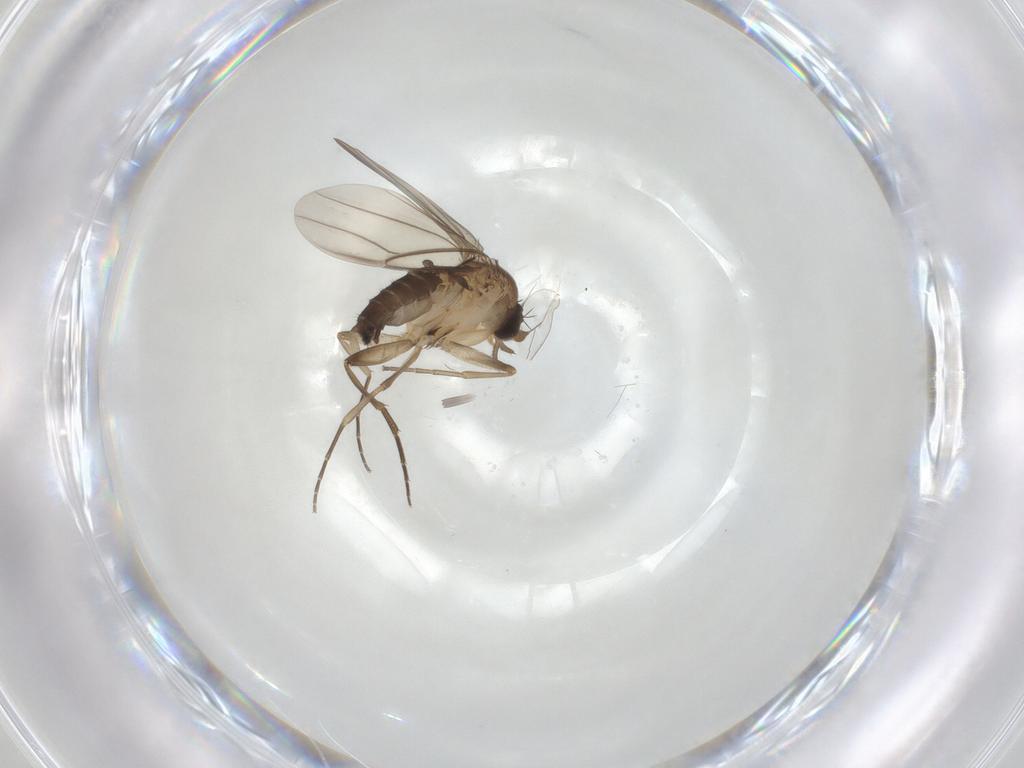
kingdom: Animalia
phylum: Arthropoda
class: Insecta
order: Diptera
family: Phoridae
